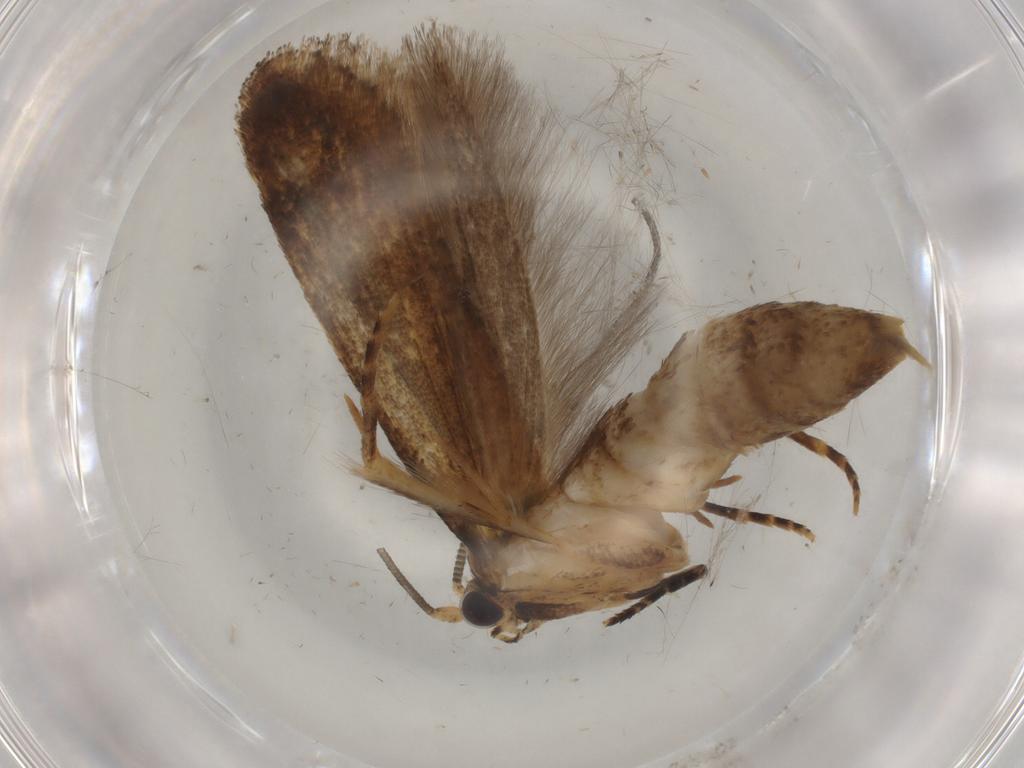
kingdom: Animalia
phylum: Arthropoda
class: Insecta
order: Lepidoptera
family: Tineidae
